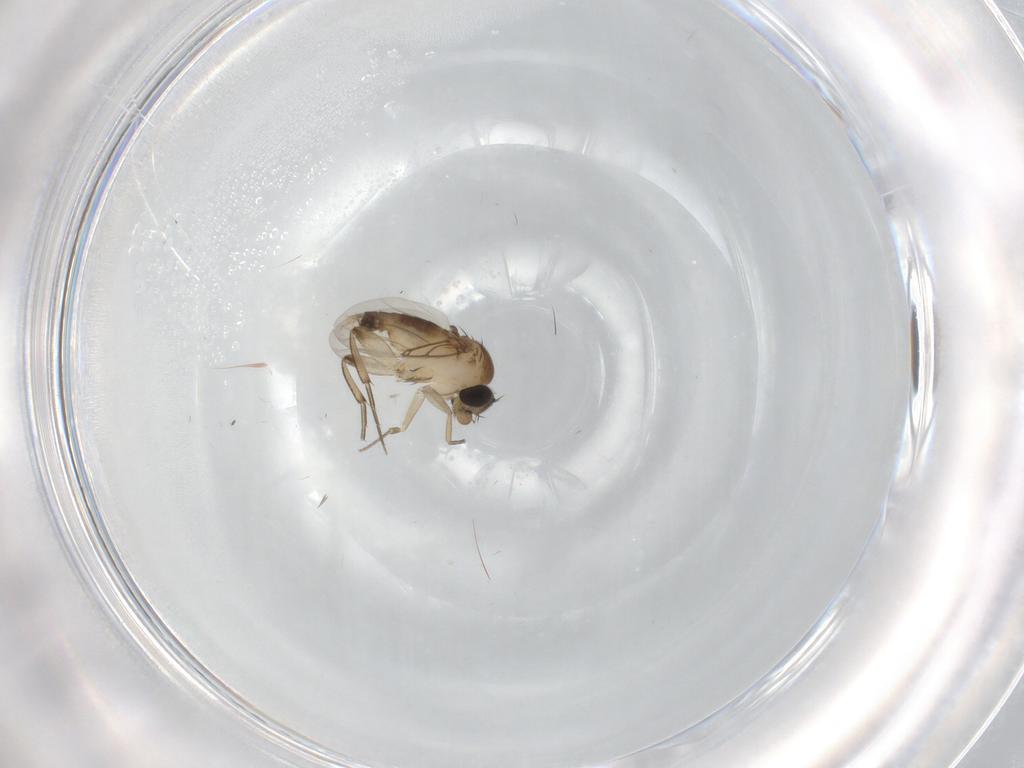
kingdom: Animalia
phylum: Arthropoda
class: Insecta
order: Diptera
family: Phoridae
